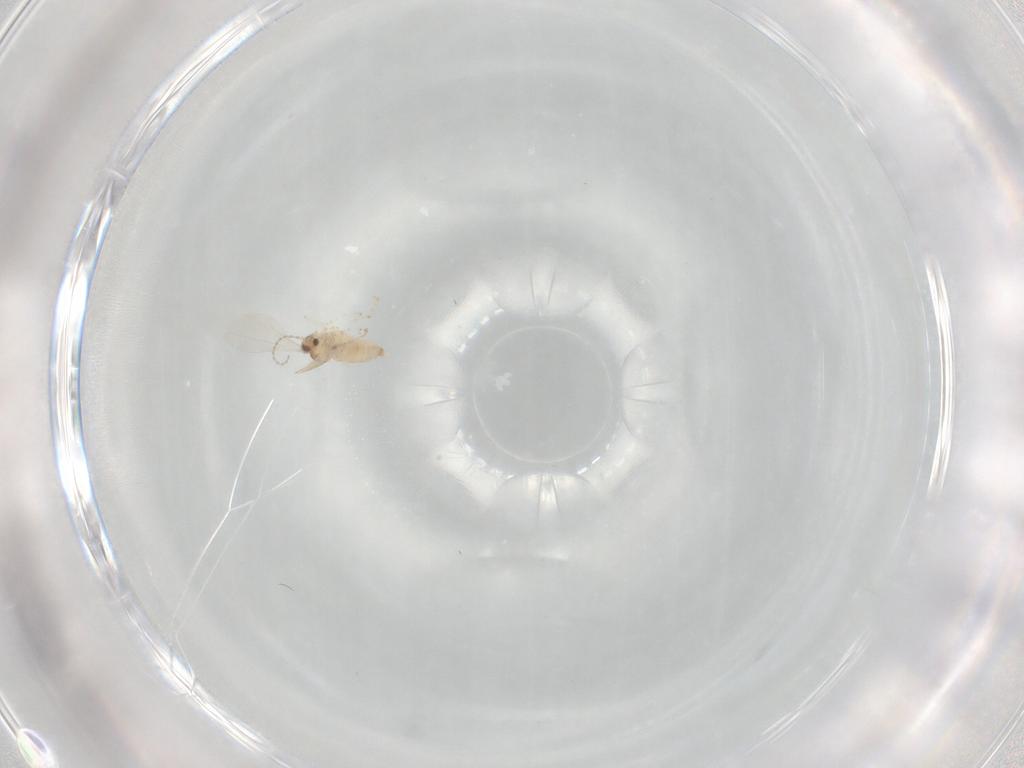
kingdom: Animalia
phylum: Arthropoda
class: Insecta
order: Diptera
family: Cecidomyiidae
